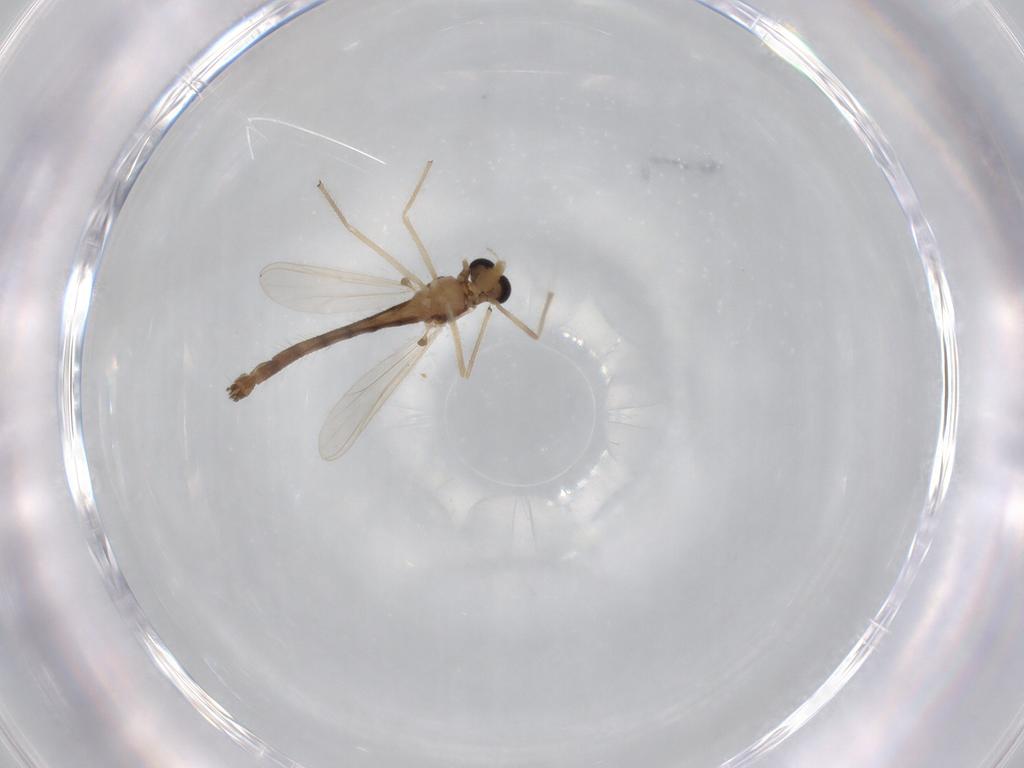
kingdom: Animalia
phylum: Arthropoda
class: Insecta
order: Diptera
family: Chironomidae
